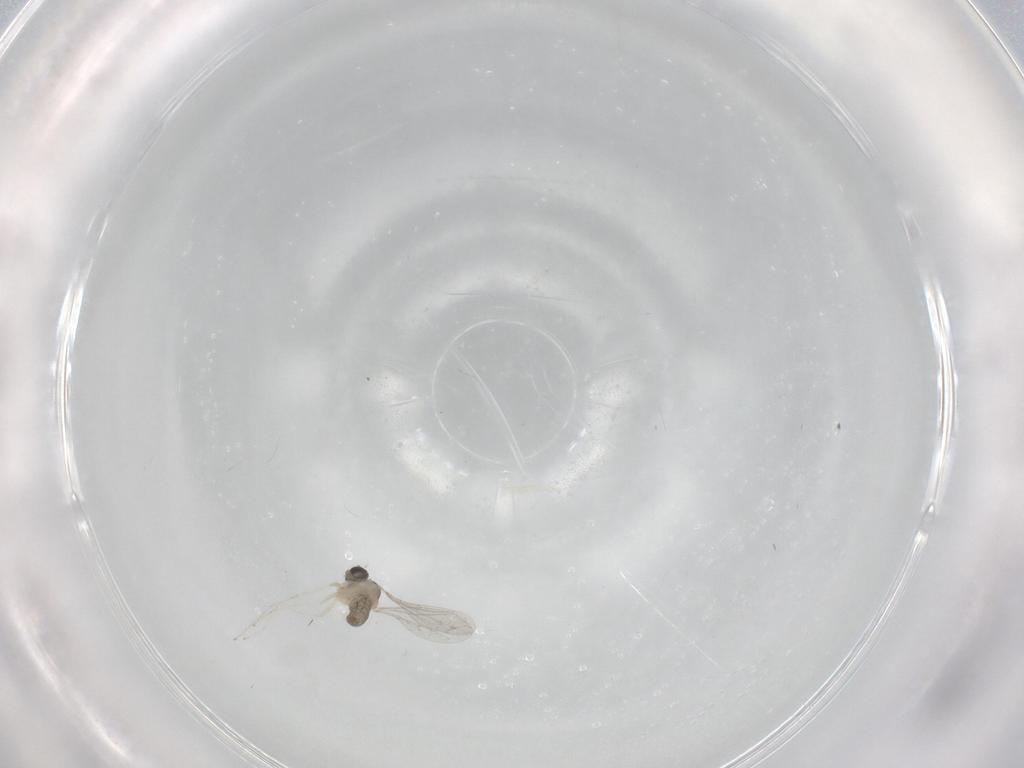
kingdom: Animalia
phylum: Arthropoda
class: Insecta
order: Diptera
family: Cecidomyiidae
